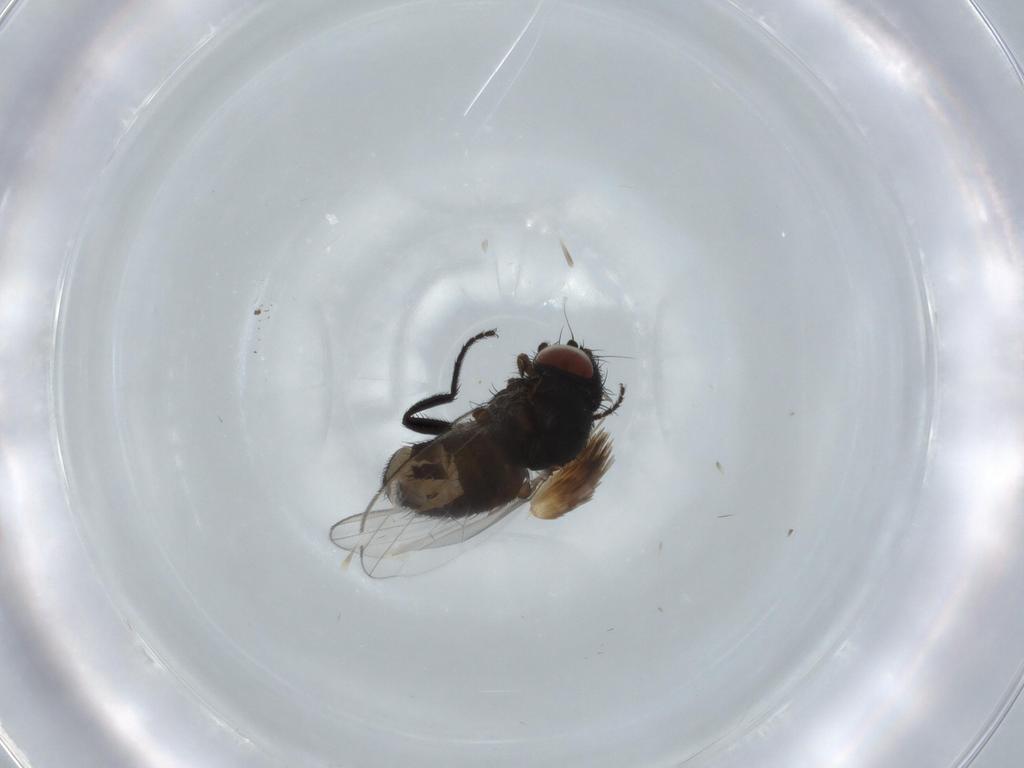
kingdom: Animalia
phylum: Arthropoda
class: Insecta
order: Diptera
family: Milichiidae
